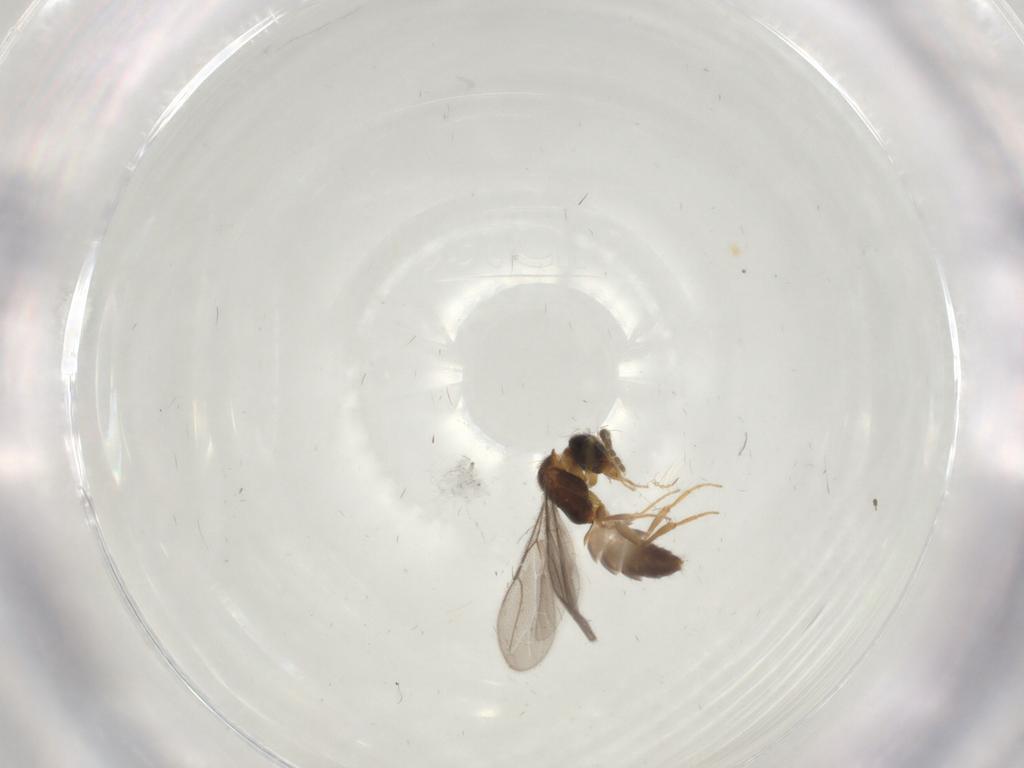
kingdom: Animalia
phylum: Arthropoda
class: Insecta
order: Hymenoptera
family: Bethylidae
